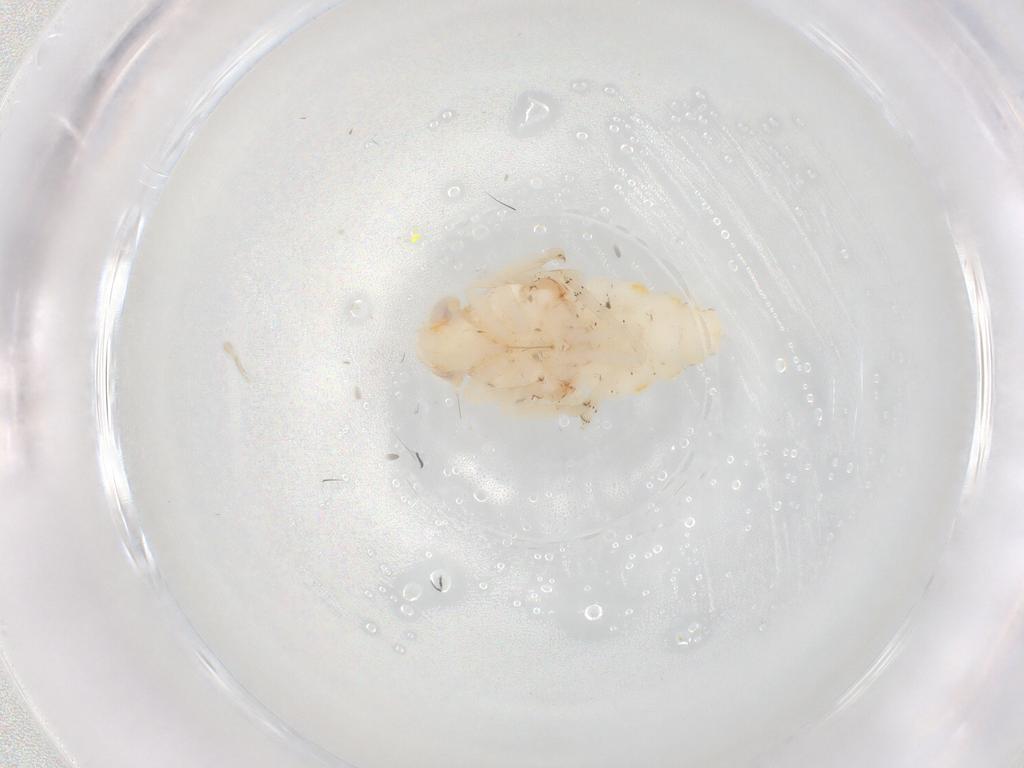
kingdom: Animalia
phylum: Arthropoda
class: Insecta
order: Hemiptera
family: Nogodinidae
